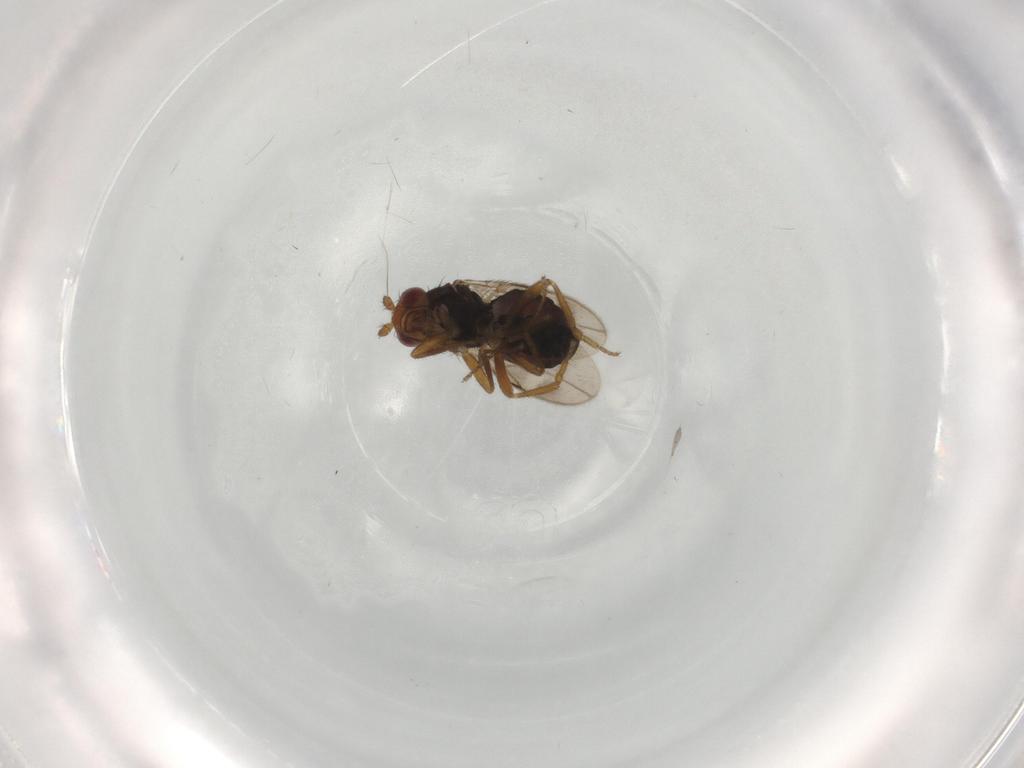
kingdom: Animalia
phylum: Arthropoda
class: Insecta
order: Diptera
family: Sphaeroceridae
